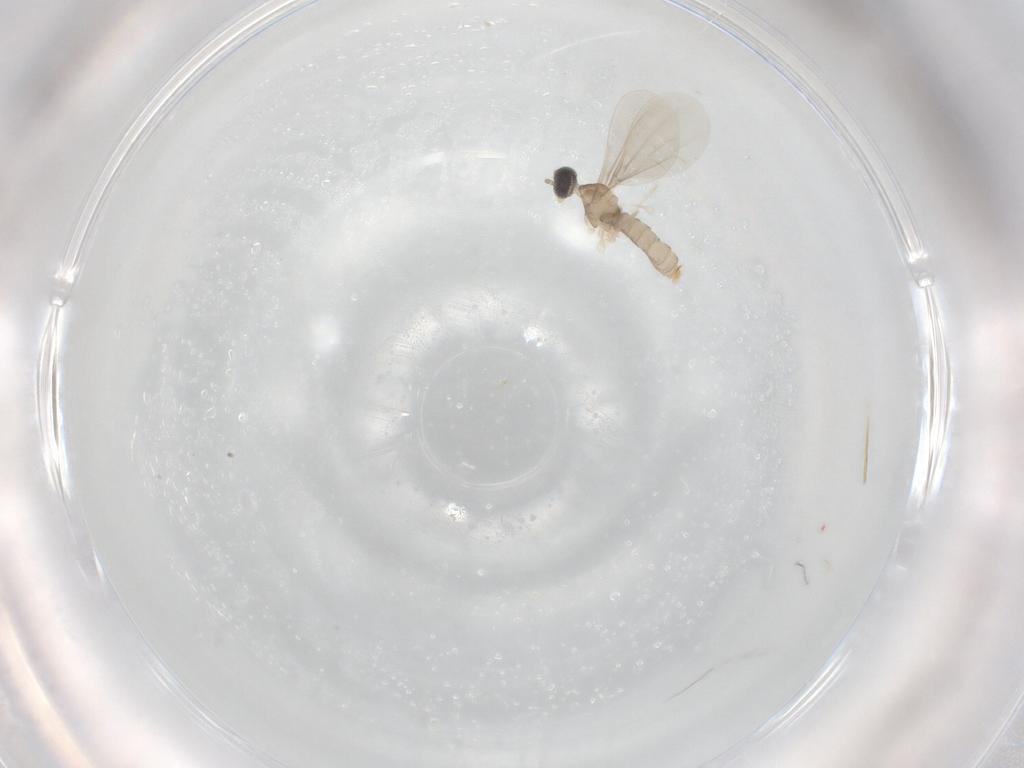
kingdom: Animalia
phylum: Arthropoda
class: Insecta
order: Diptera
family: Cecidomyiidae
